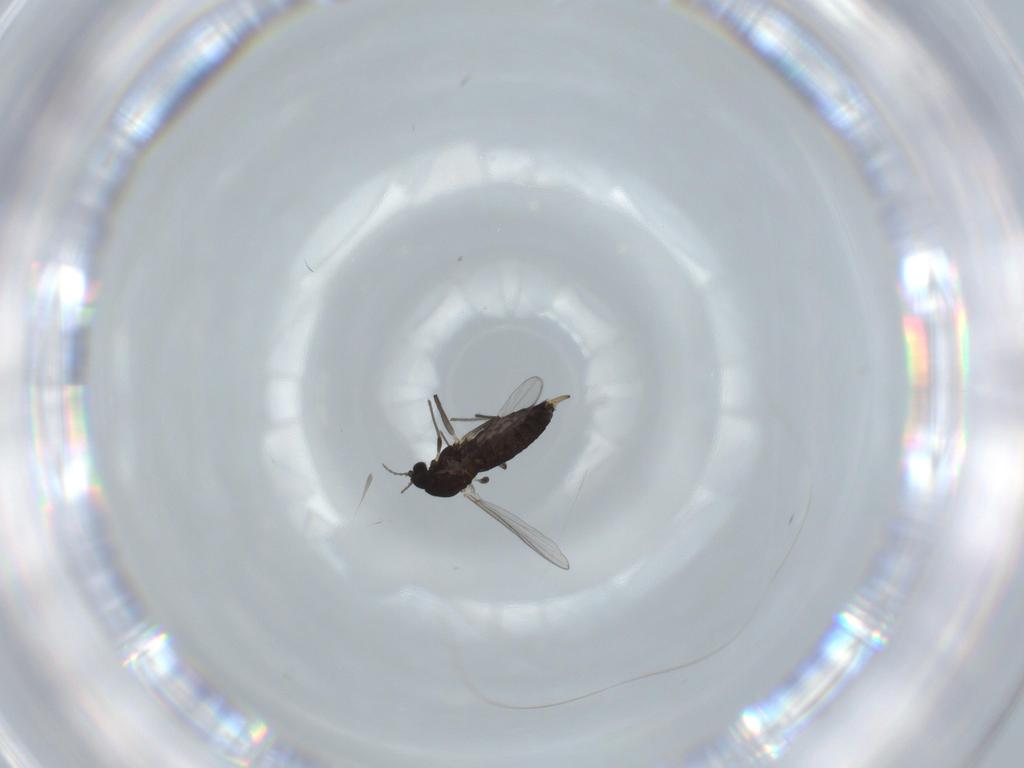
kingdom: Animalia
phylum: Arthropoda
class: Insecta
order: Diptera
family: Chironomidae
